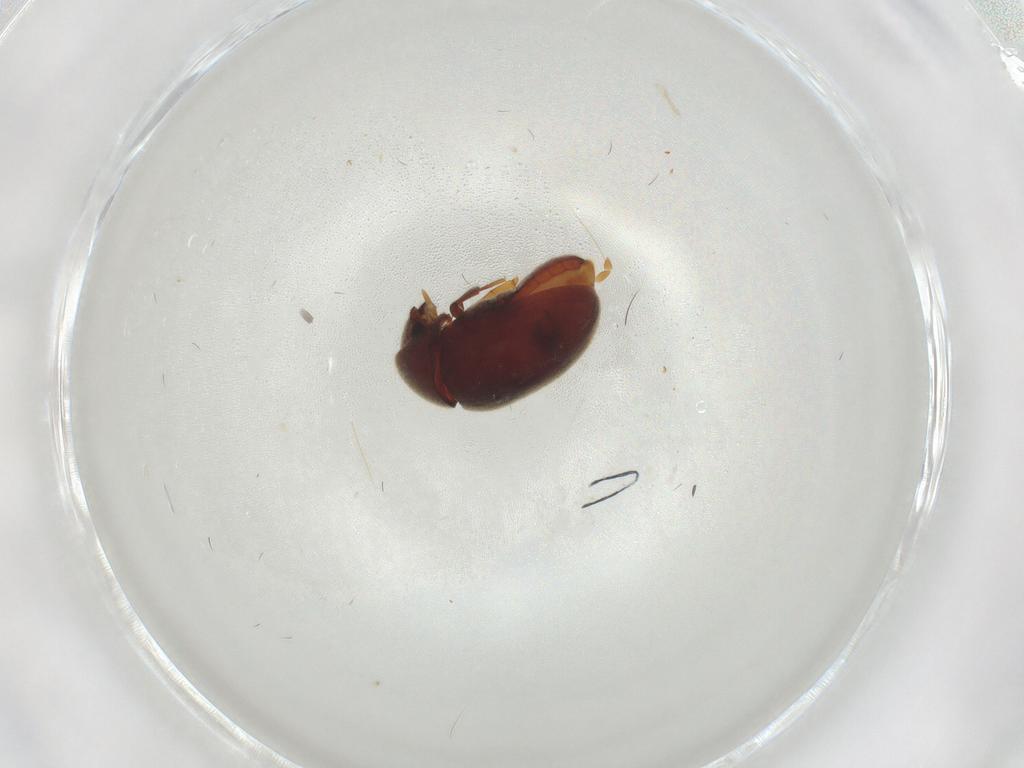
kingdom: Animalia
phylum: Arthropoda
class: Insecta
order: Coleoptera
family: Ptinidae
